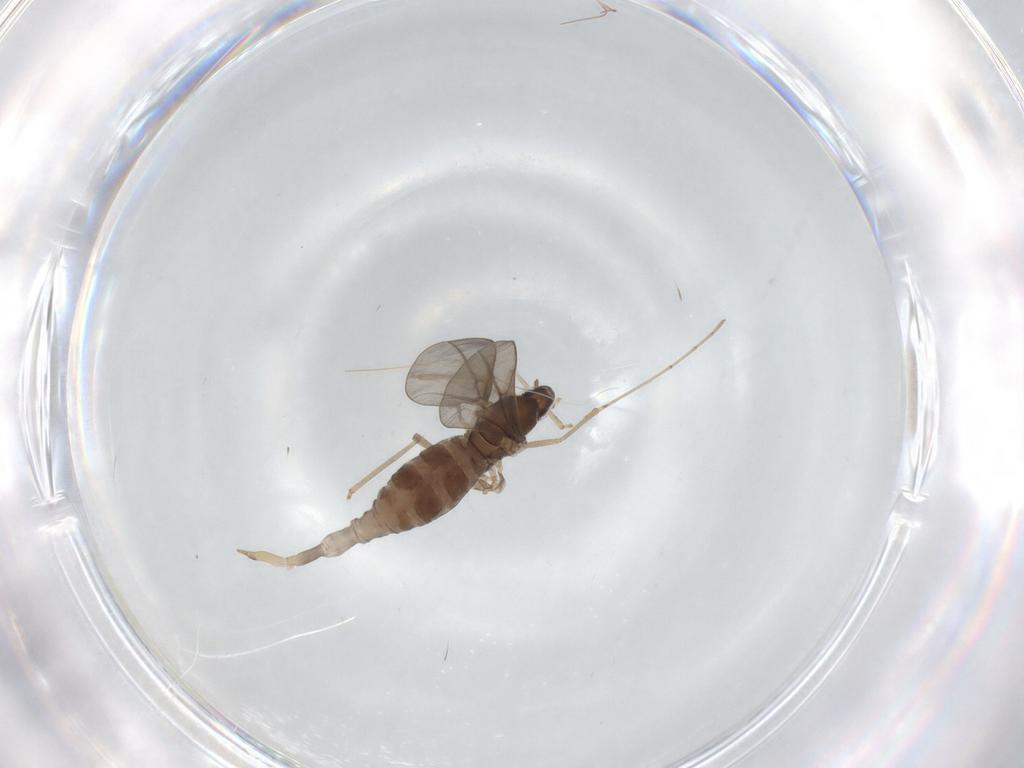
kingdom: Animalia
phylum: Arthropoda
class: Insecta
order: Diptera
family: Cecidomyiidae
